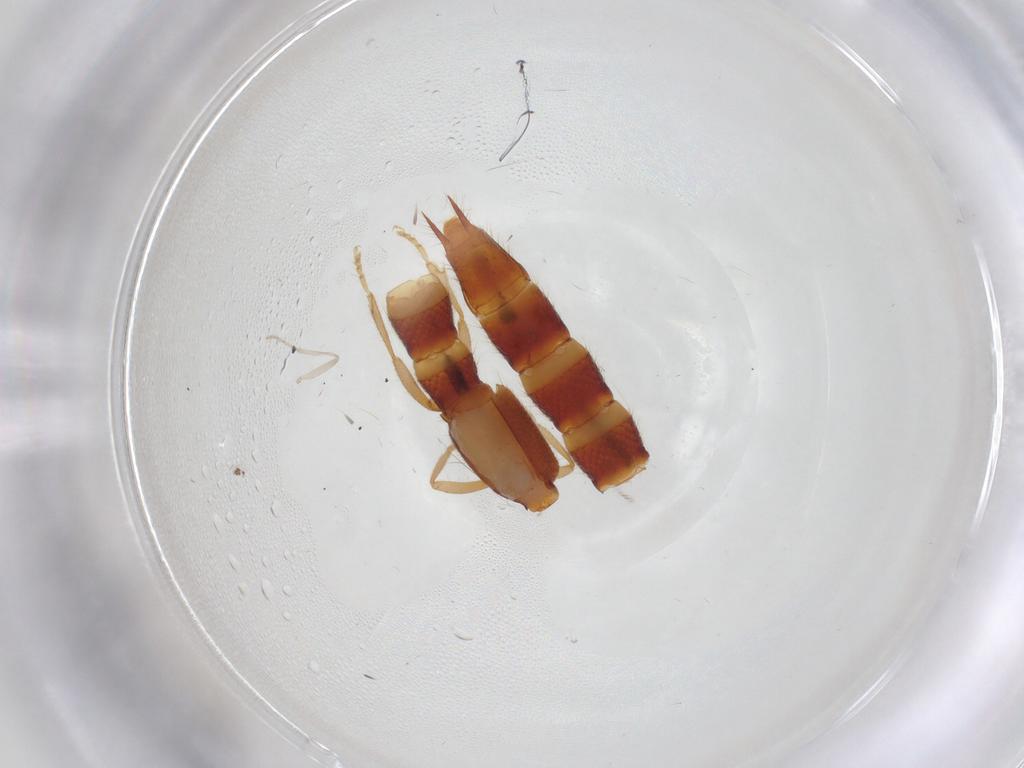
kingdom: Animalia
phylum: Arthropoda
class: Insecta
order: Coleoptera
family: Staphylinidae
